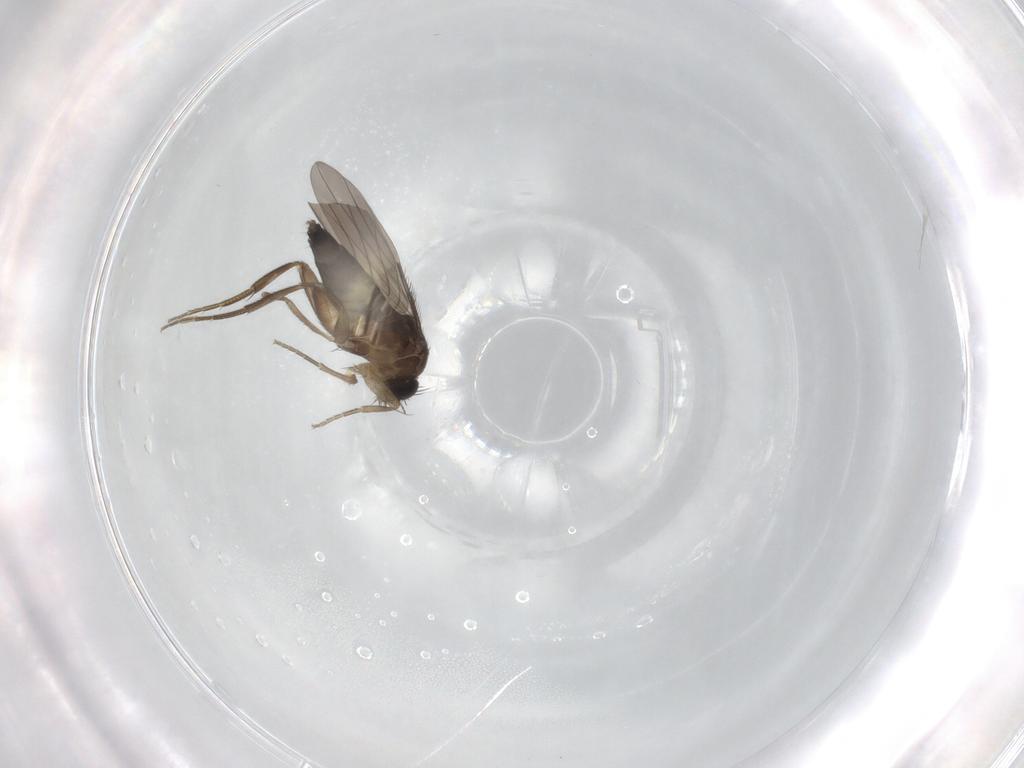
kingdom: Animalia
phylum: Arthropoda
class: Insecta
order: Diptera
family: Phoridae
